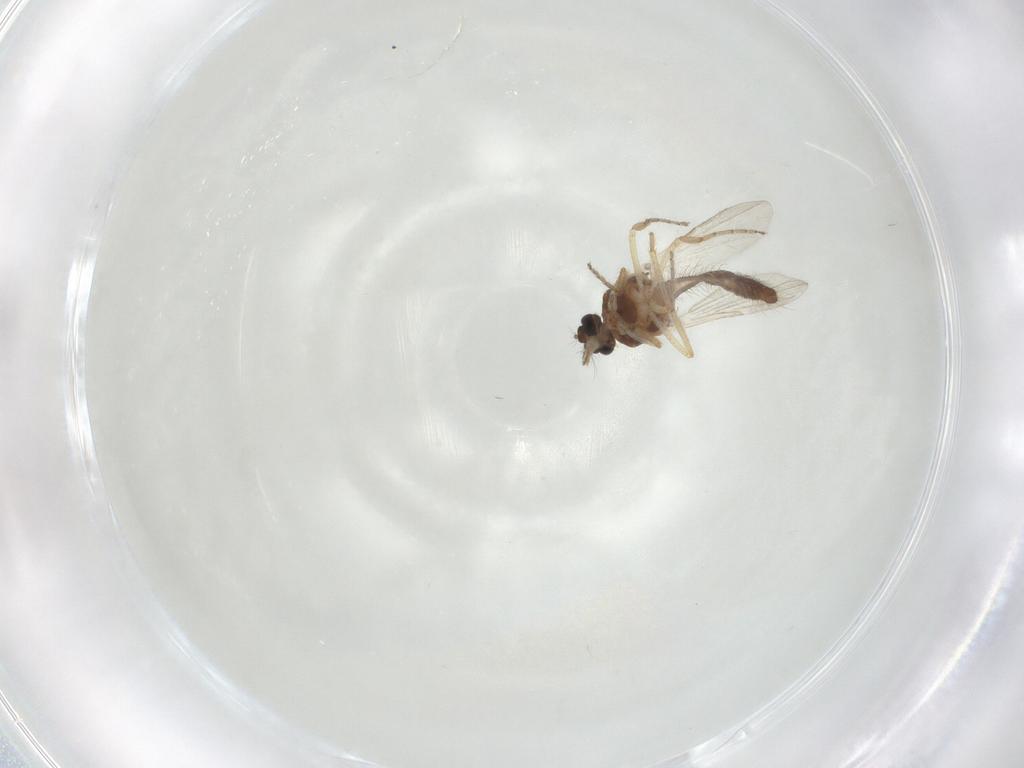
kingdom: Animalia
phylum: Arthropoda
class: Insecta
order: Diptera
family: Ceratopogonidae
